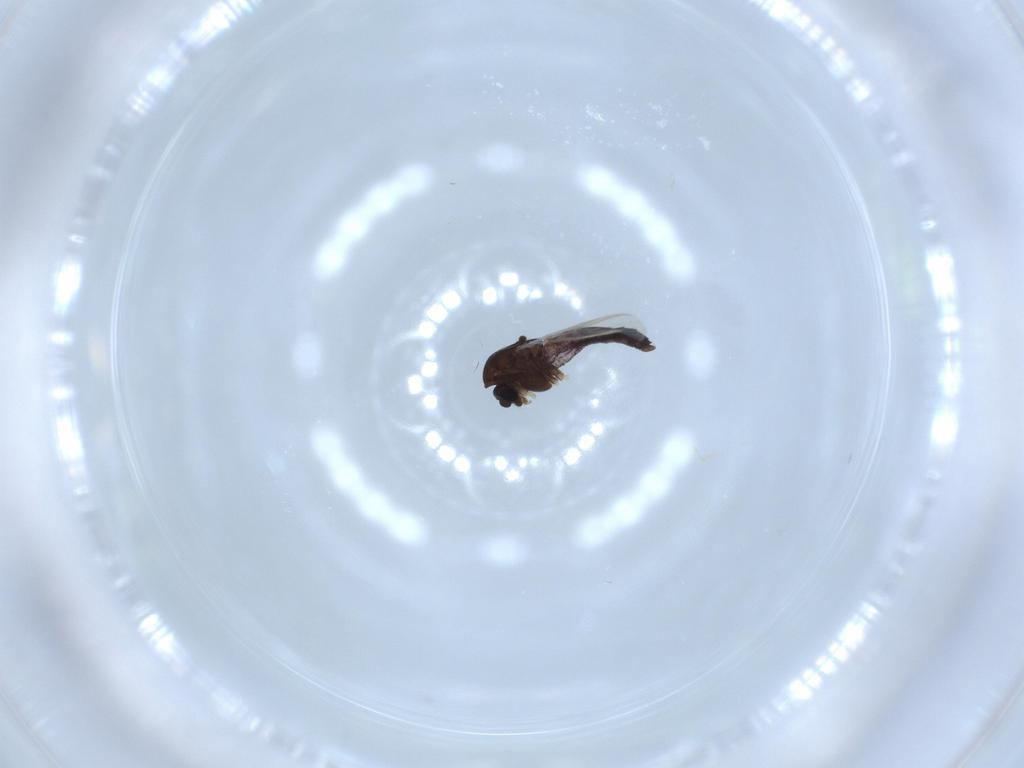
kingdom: Animalia
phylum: Arthropoda
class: Insecta
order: Diptera
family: Chironomidae
